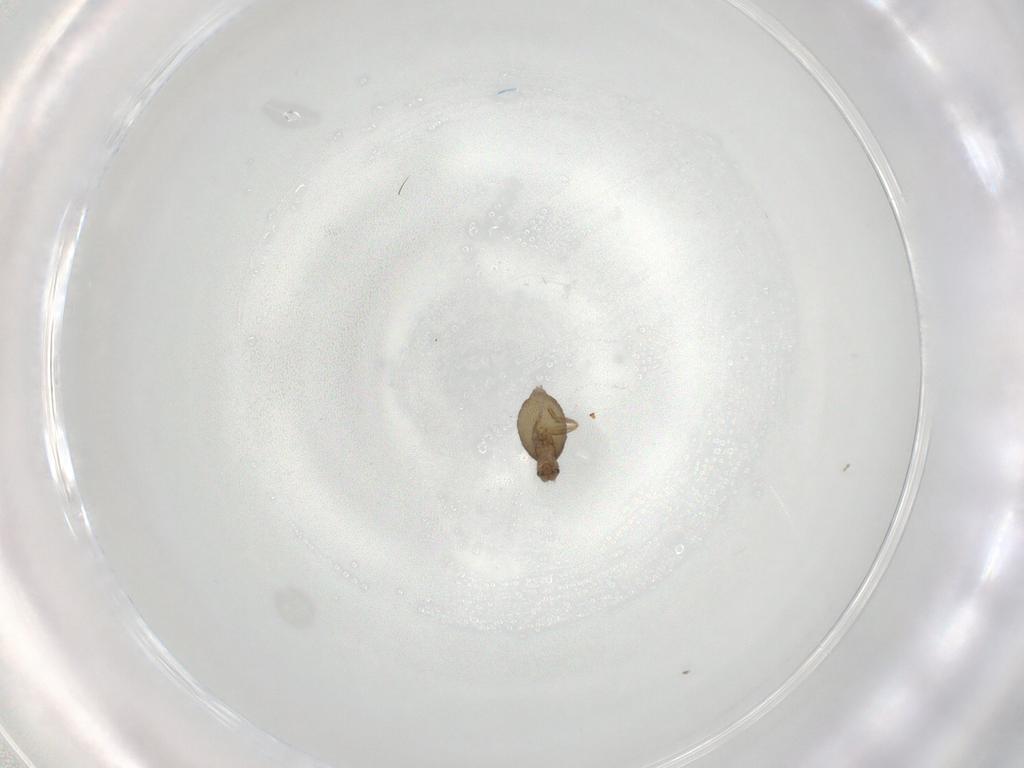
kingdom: Animalia
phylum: Arthropoda
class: Insecta
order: Diptera
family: Phoridae
